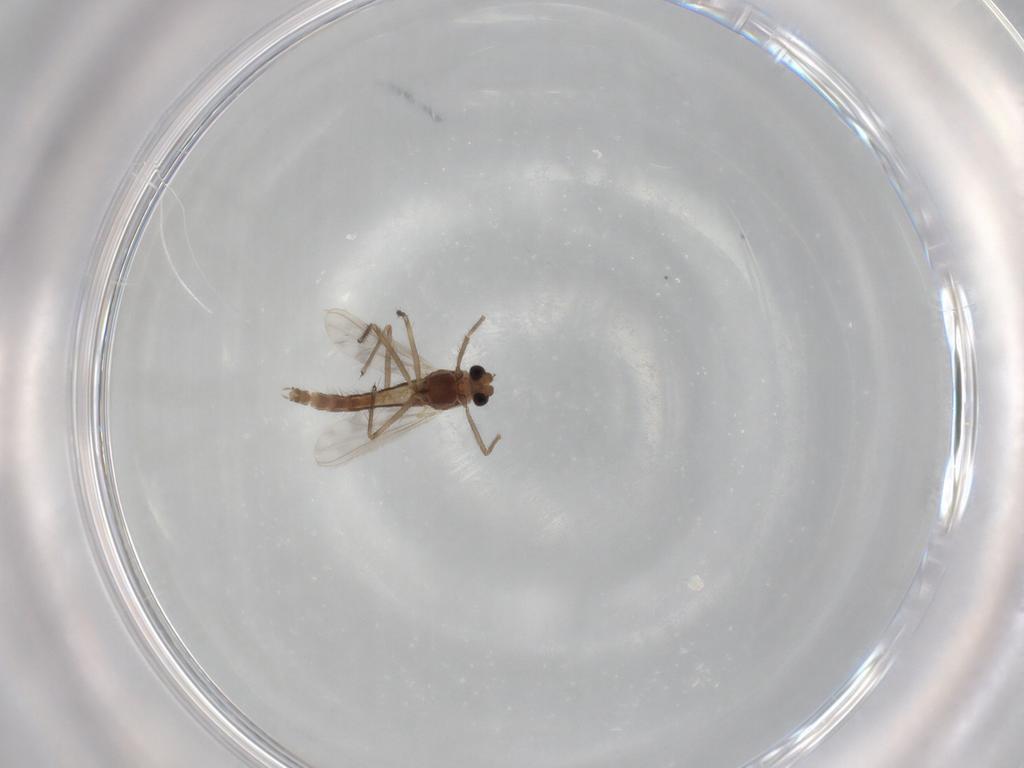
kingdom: Animalia
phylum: Arthropoda
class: Insecta
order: Diptera
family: Chironomidae
